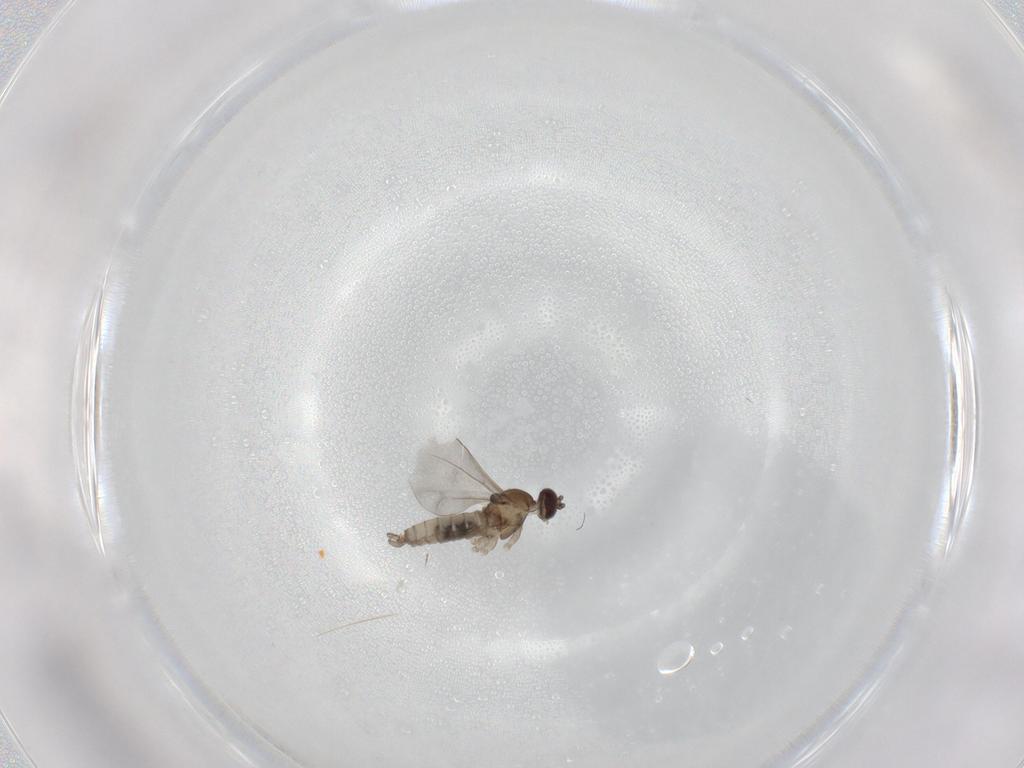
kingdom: Animalia
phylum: Arthropoda
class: Insecta
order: Diptera
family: Cecidomyiidae
